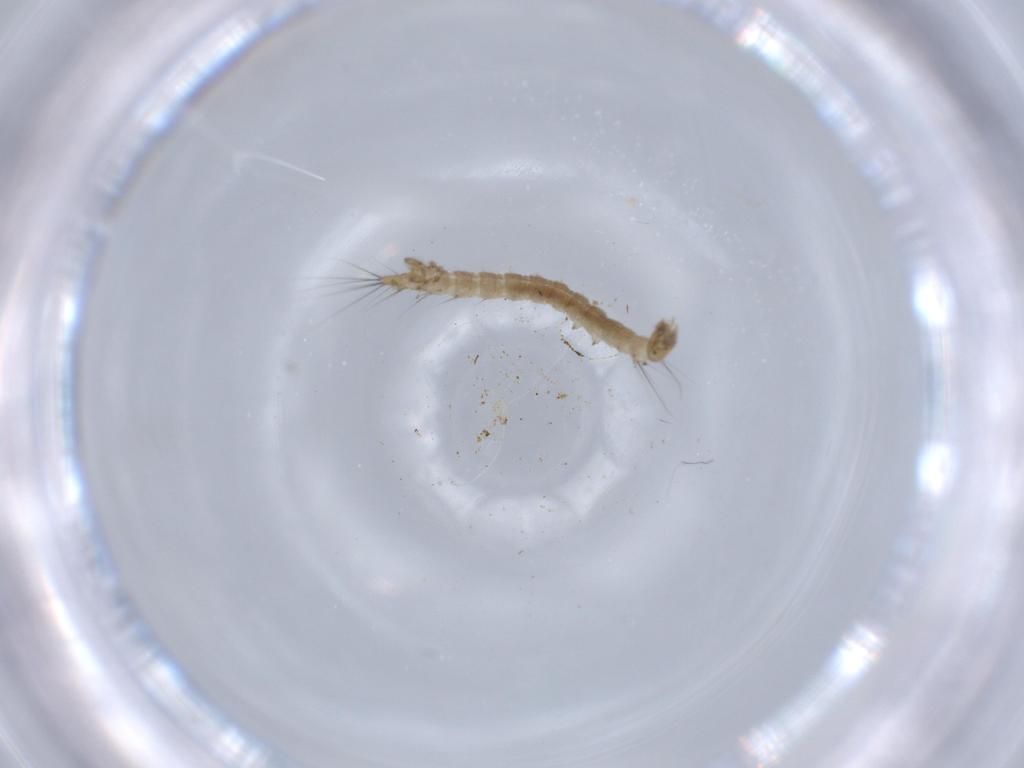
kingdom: Animalia
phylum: Arthropoda
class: Insecta
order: Diptera
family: Dixidae
